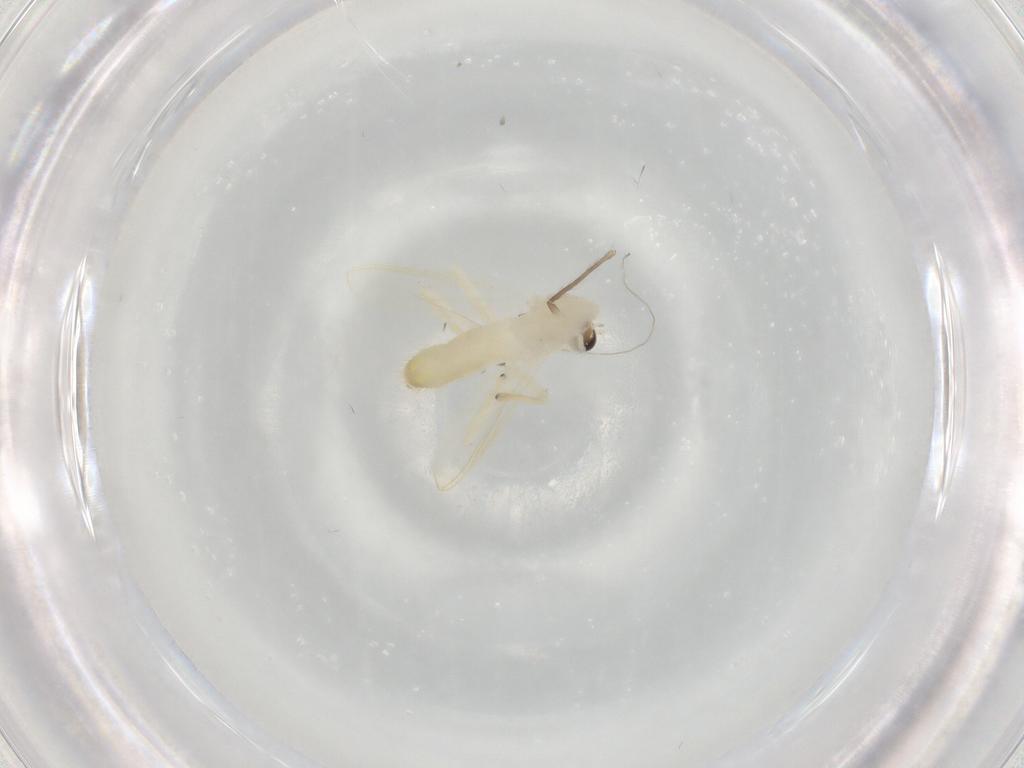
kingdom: Animalia
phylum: Arthropoda
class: Insecta
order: Diptera
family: Chironomidae
